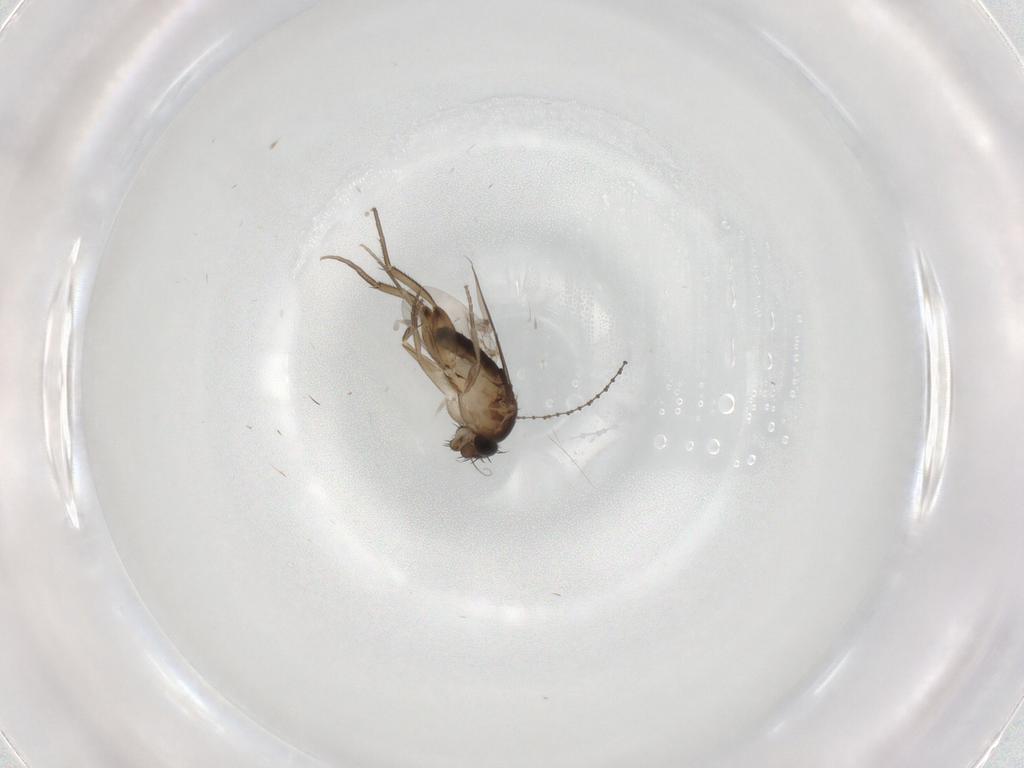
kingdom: Animalia
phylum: Arthropoda
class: Insecta
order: Diptera
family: Phoridae
